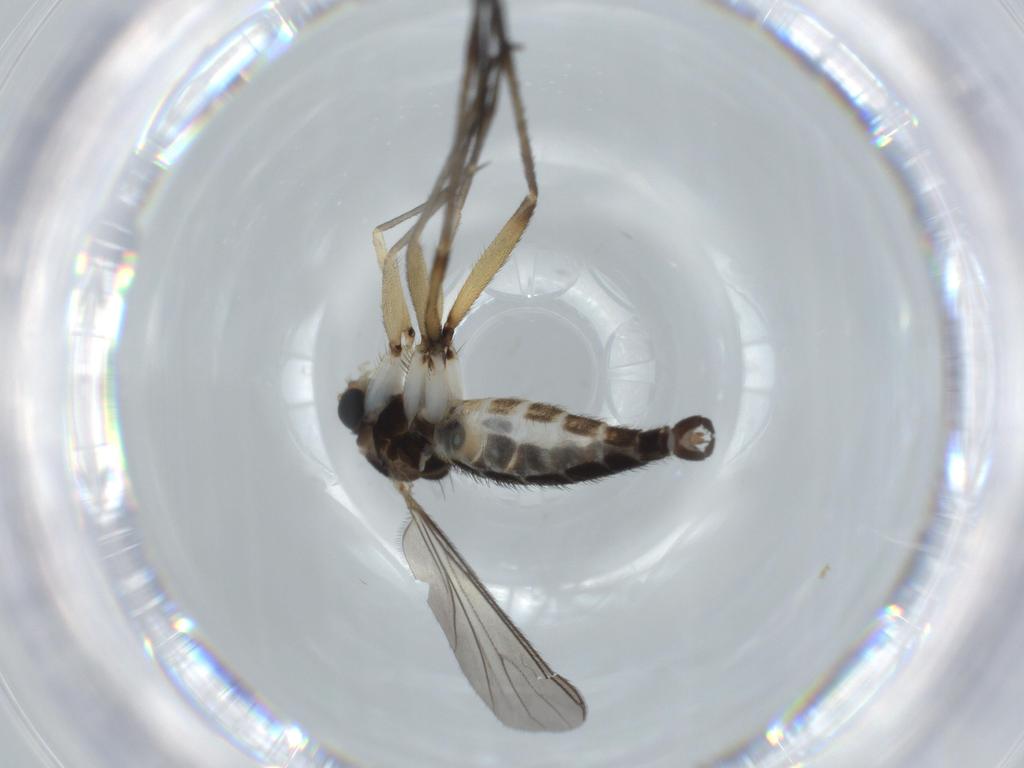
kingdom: Animalia
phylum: Arthropoda
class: Insecta
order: Diptera
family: Sciaridae
